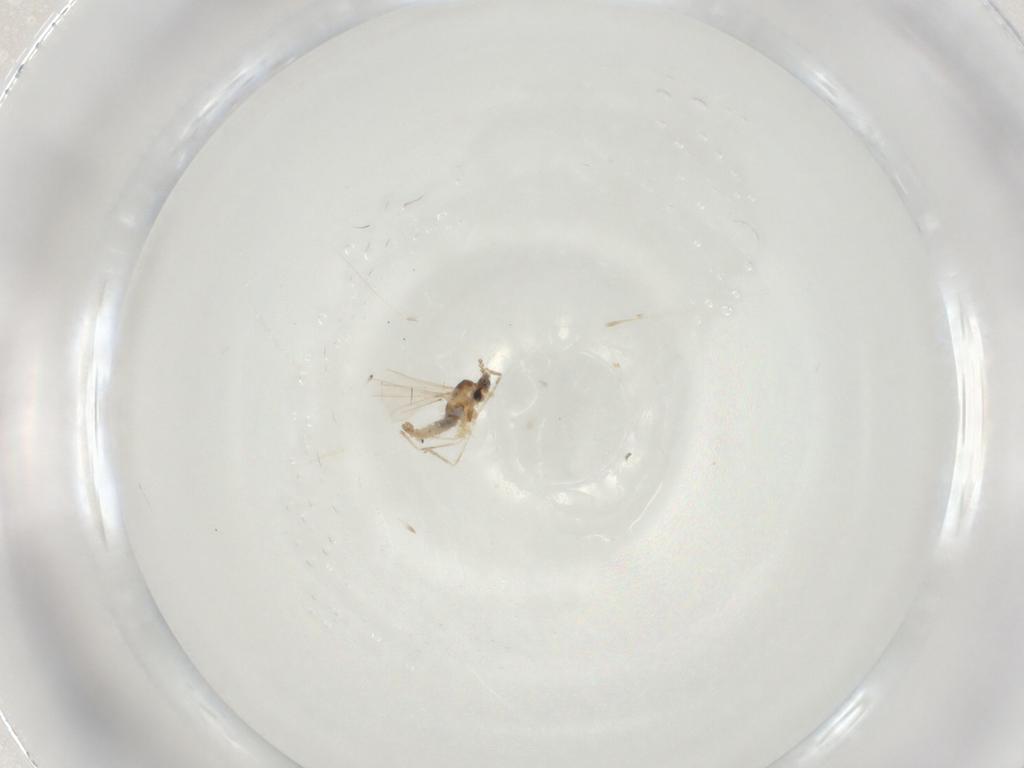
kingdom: Animalia
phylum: Arthropoda
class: Insecta
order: Diptera
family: Cecidomyiidae
